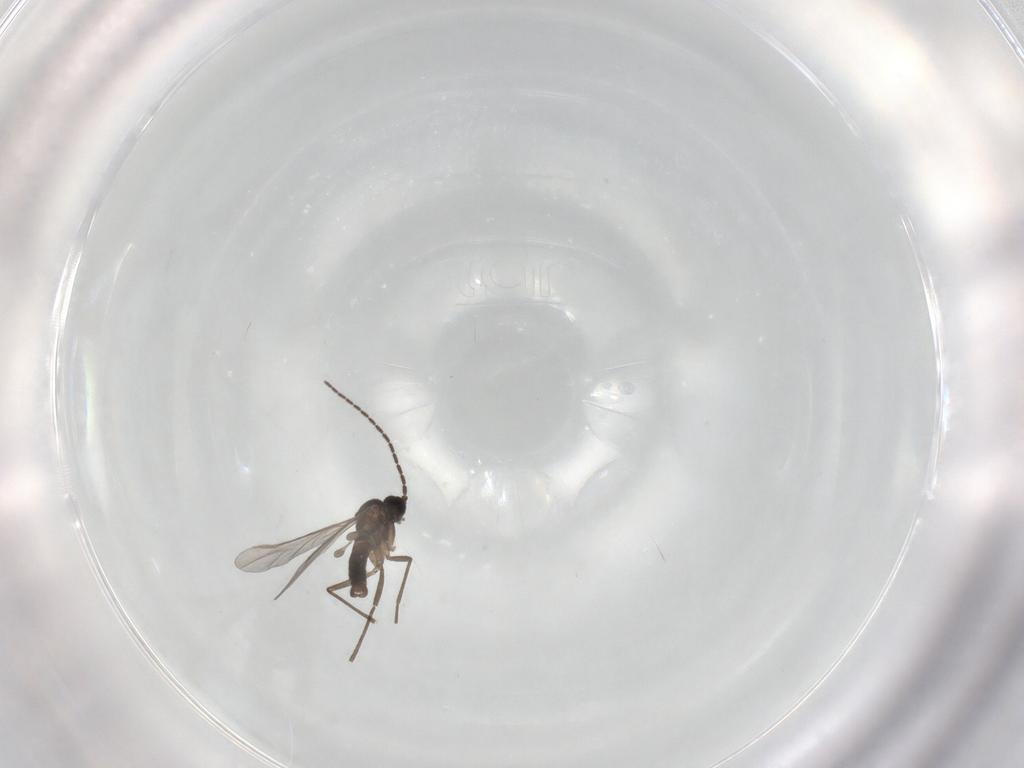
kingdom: Animalia
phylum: Arthropoda
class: Insecta
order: Diptera
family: Sciaridae
